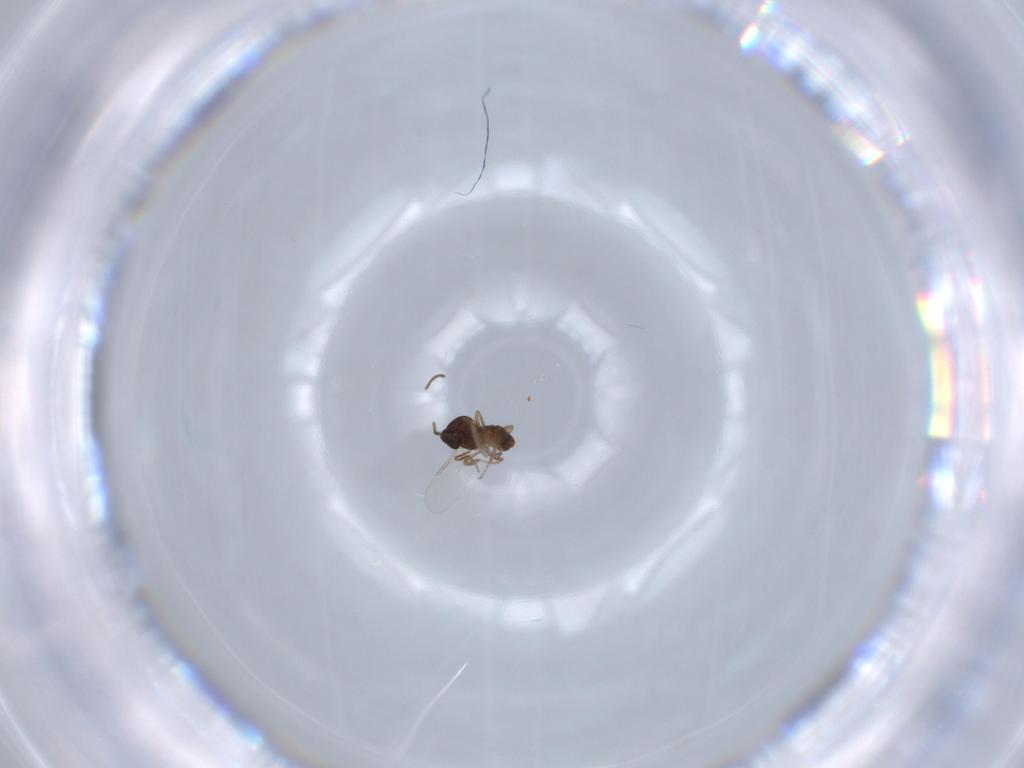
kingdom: Animalia
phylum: Arthropoda
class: Insecta
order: Diptera
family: Ceratopogonidae
